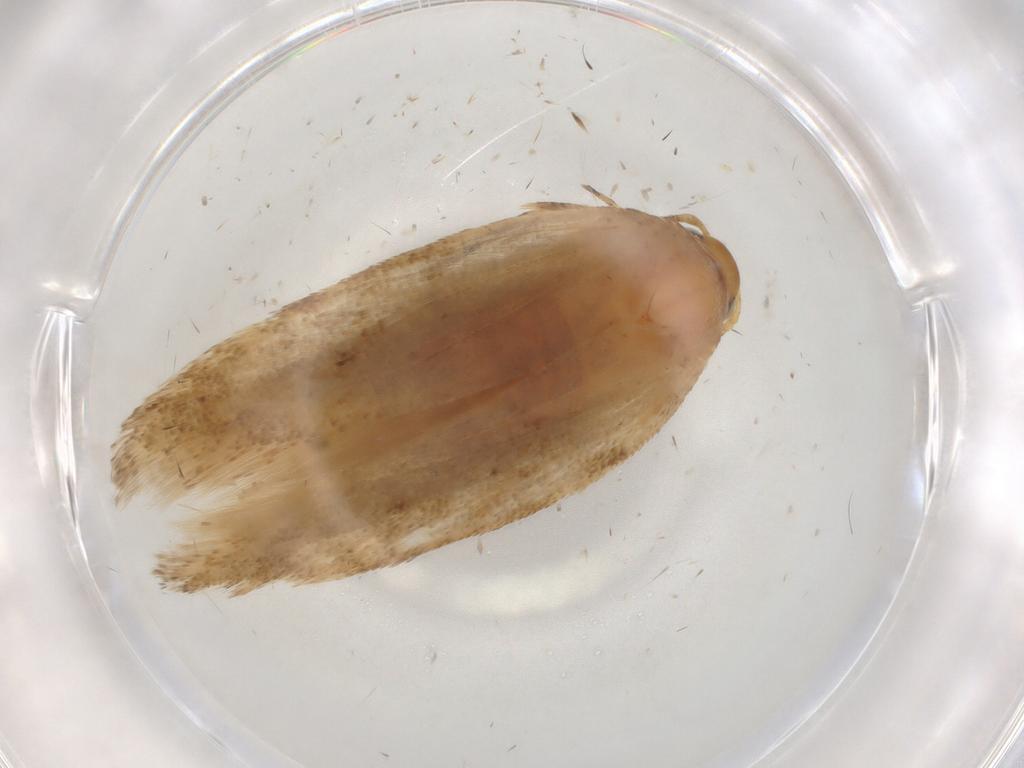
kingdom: Animalia
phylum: Arthropoda
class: Insecta
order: Lepidoptera
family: Noctuidae
